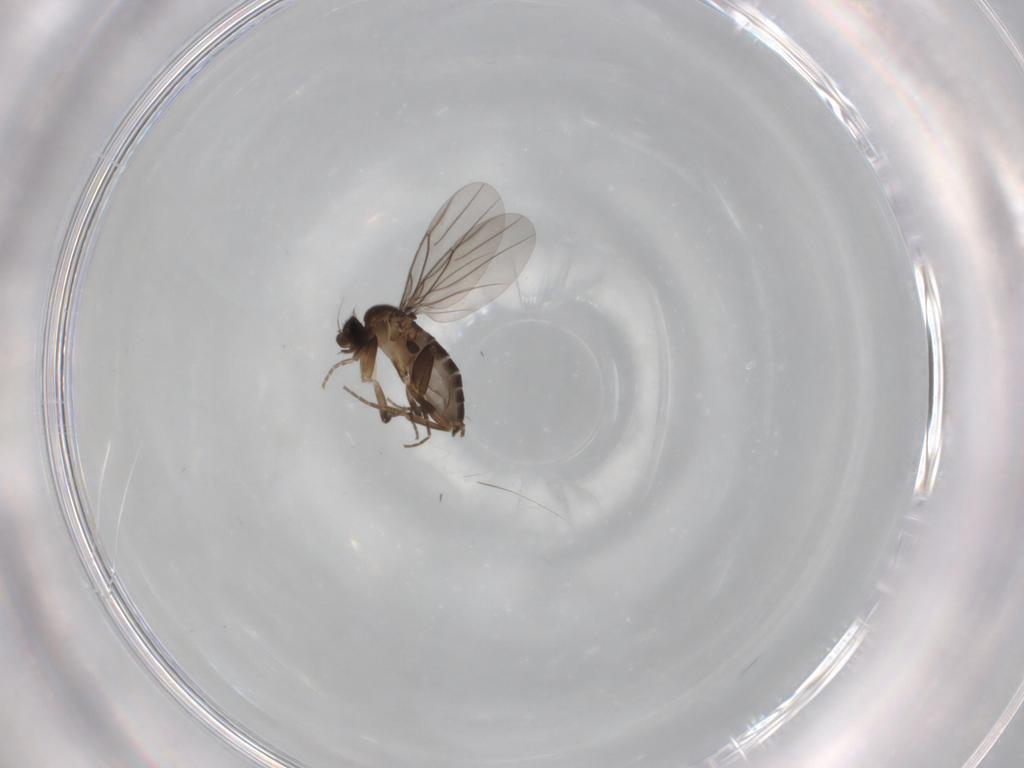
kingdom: Animalia
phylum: Arthropoda
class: Insecta
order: Diptera
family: Phoridae
